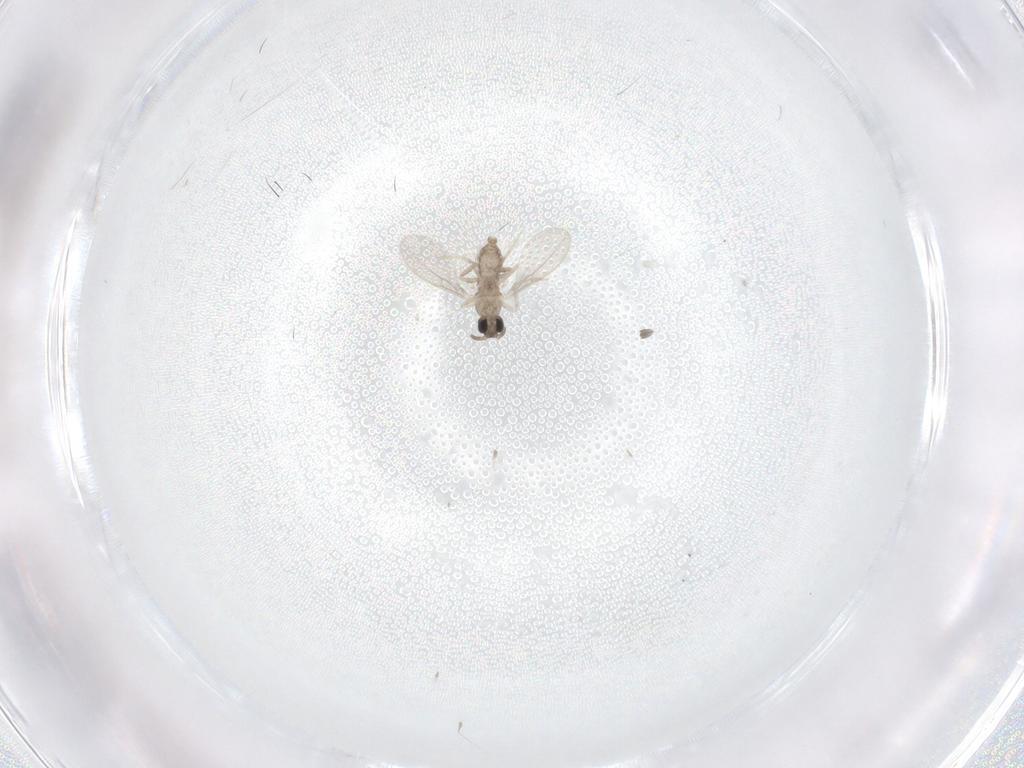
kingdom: Animalia
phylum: Arthropoda
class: Insecta
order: Diptera
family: Cecidomyiidae
